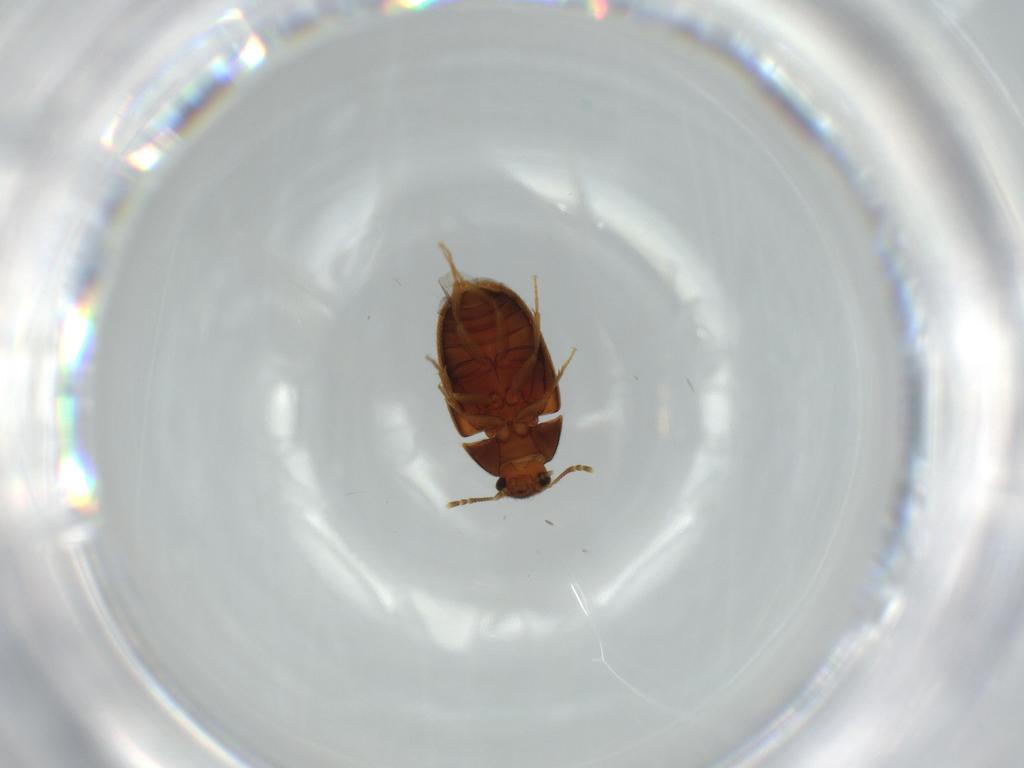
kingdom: Animalia
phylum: Arthropoda
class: Insecta
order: Coleoptera
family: Mycetophagidae
